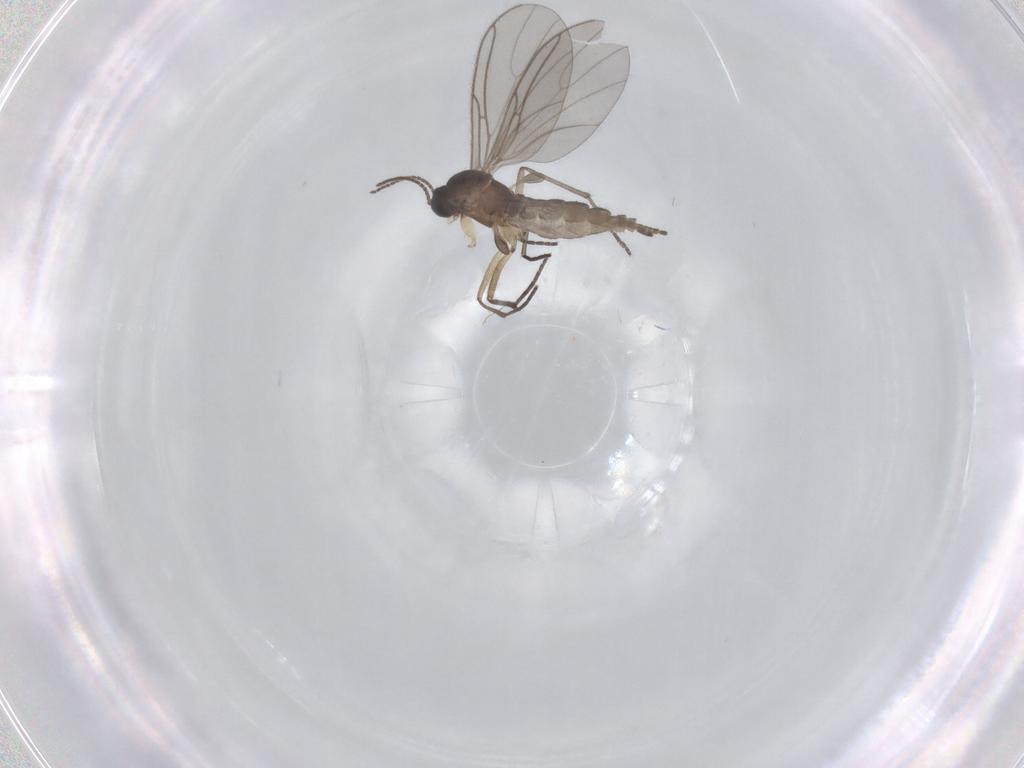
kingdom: Animalia
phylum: Arthropoda
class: Insecta
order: Diptera
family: Sciaridae
